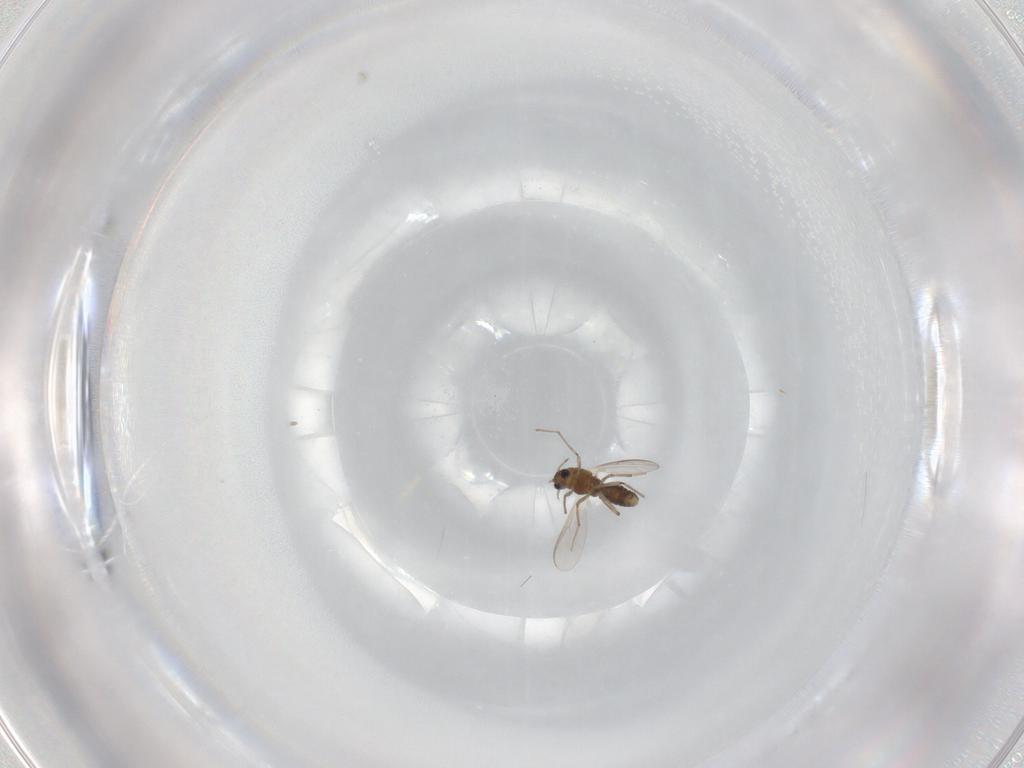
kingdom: Animalia
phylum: Arthropoda
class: Insecta
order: Diptera
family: Chironomidae
